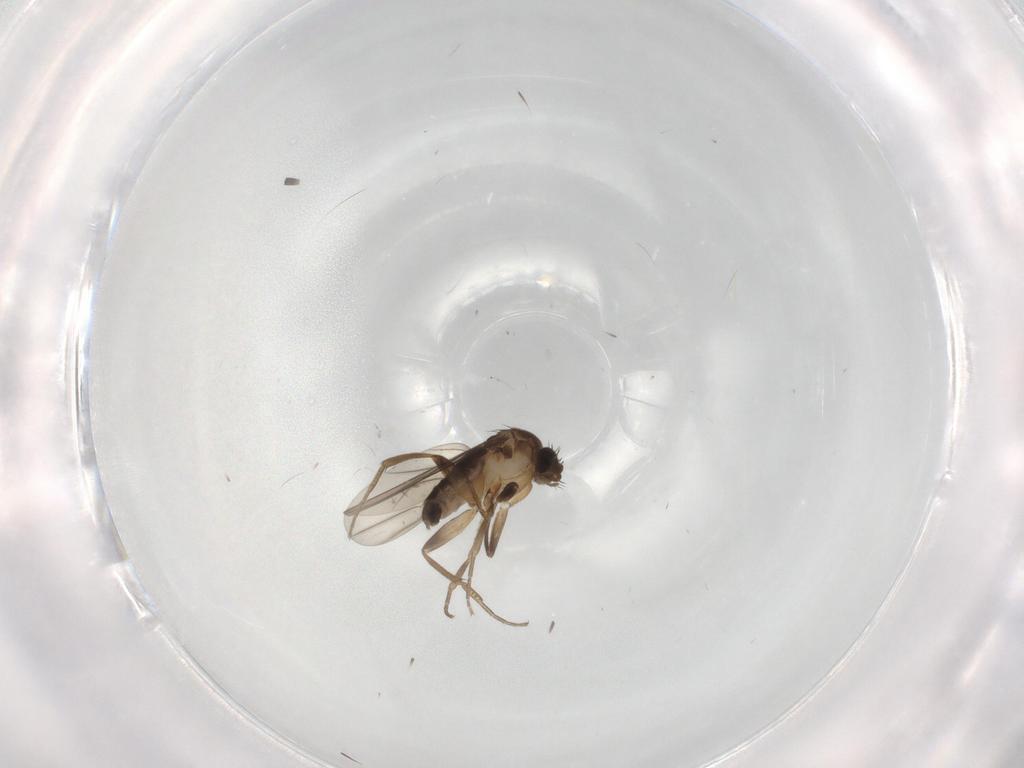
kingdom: Animalia
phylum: Arthropoda
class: Insecta
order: Diptera
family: Phoridae
